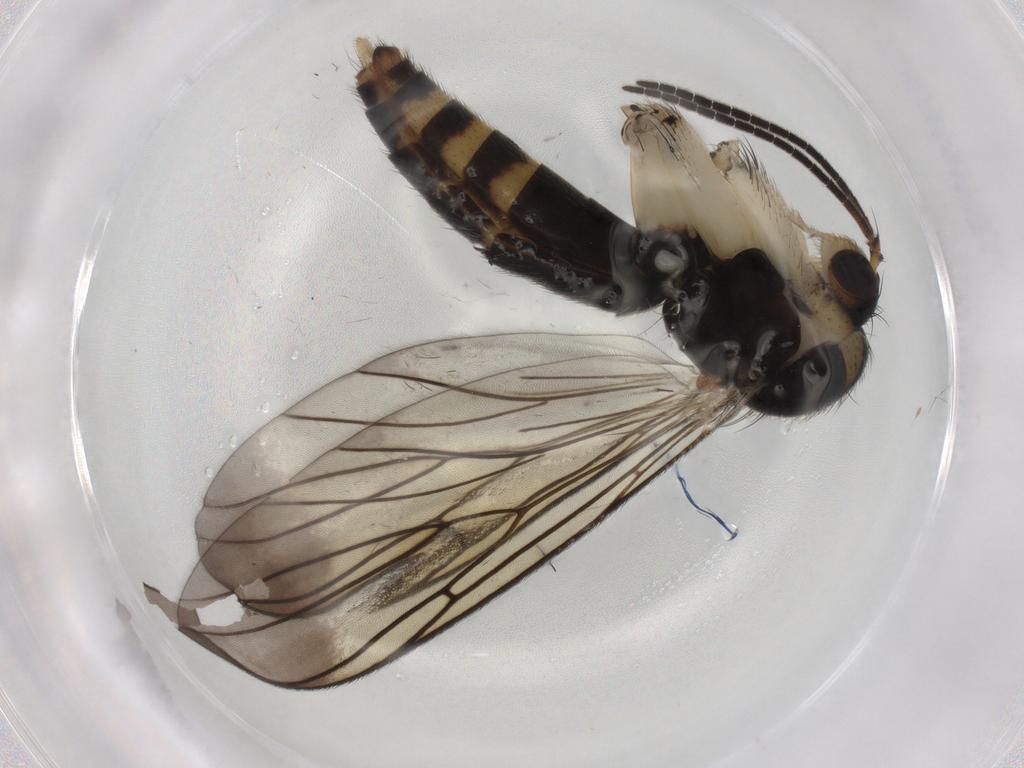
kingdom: Animalia
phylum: Arthropoda
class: Insecta
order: Diptera
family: Mycetophilidae
